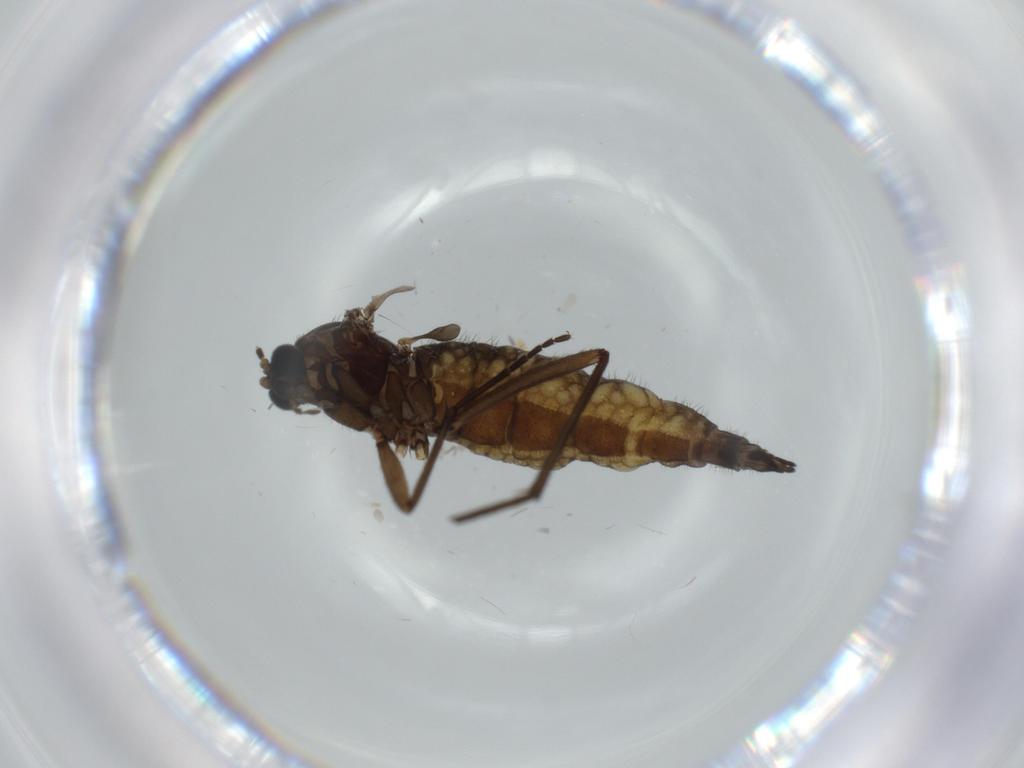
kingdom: Animalia
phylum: Arthropoda
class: Insecta
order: Diptera
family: Sciaridae
